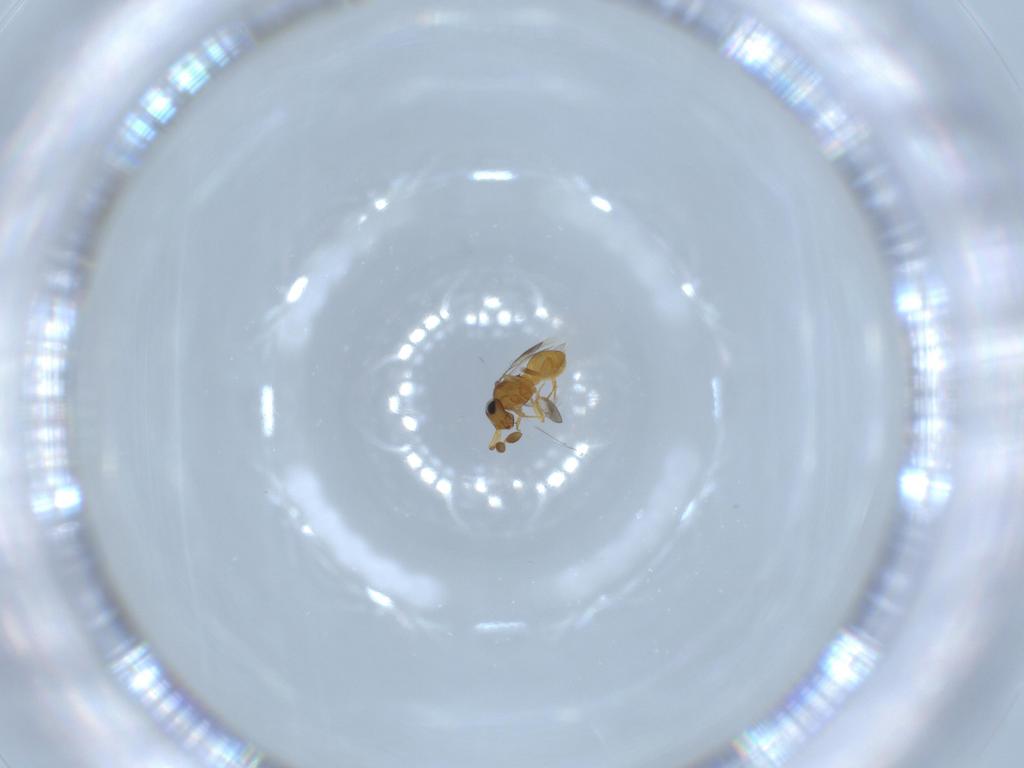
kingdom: Animalia
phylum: Arthropoda
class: Insecta
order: Hymenoptera
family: Scelionidae
